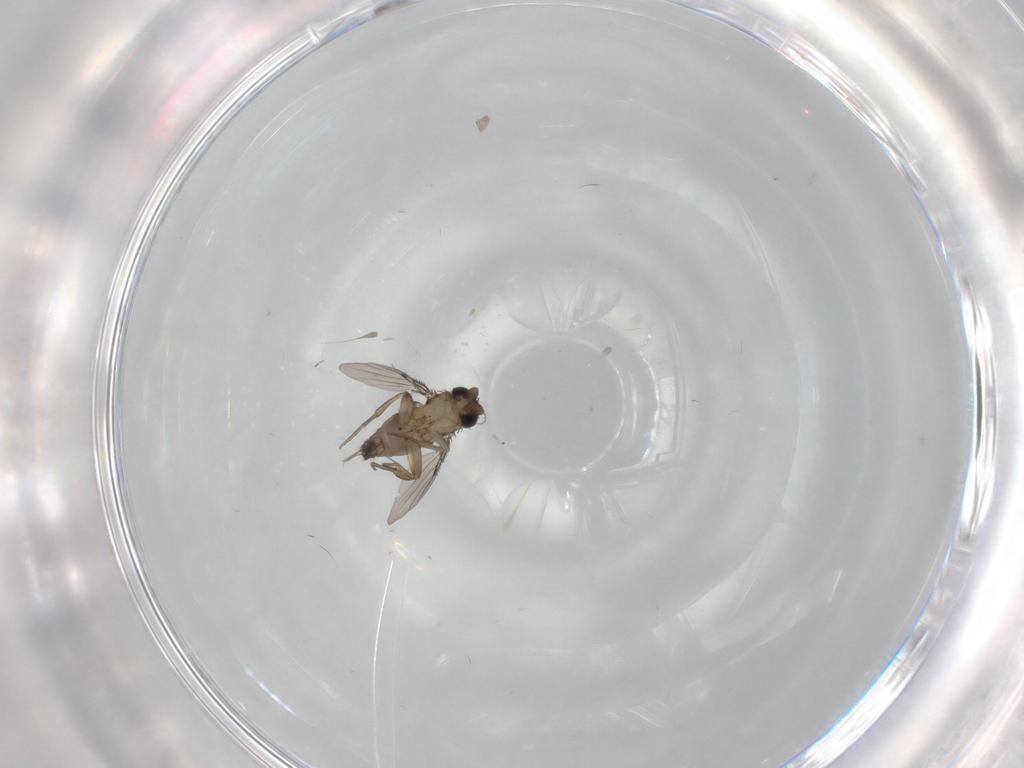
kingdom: Animalia
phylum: Arthropoda
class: Insecta
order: Diptera
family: Phoridae
